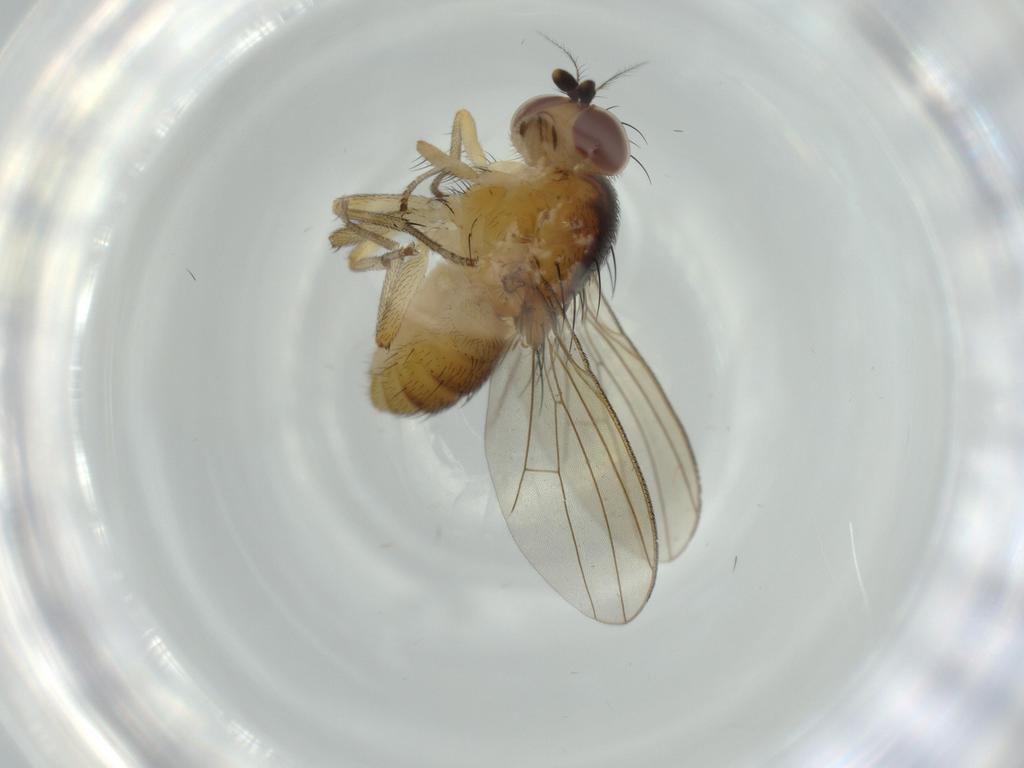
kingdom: Animalia
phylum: Arthropoda
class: Insecta
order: Diptera
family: Lauxaniidae
